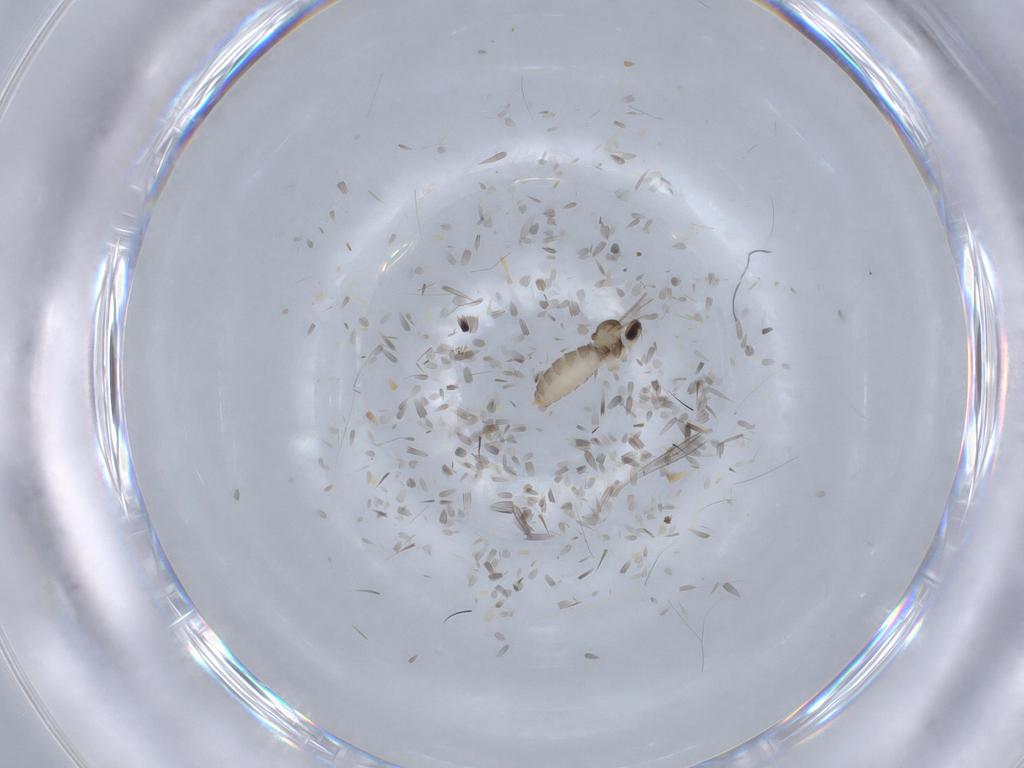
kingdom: Animalia
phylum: Arthropoda
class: Insecta
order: Diptera
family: Cecidomyiidae
